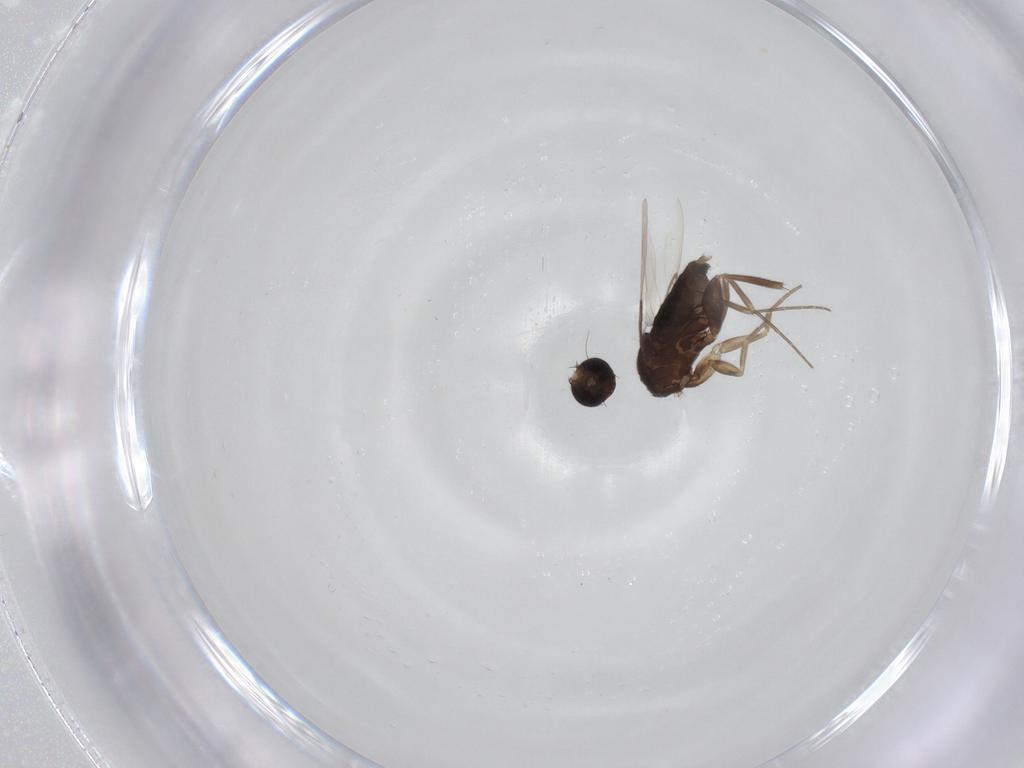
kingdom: Animalia
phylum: Arthropoda
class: Insecta
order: Diptera
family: Phoridae
